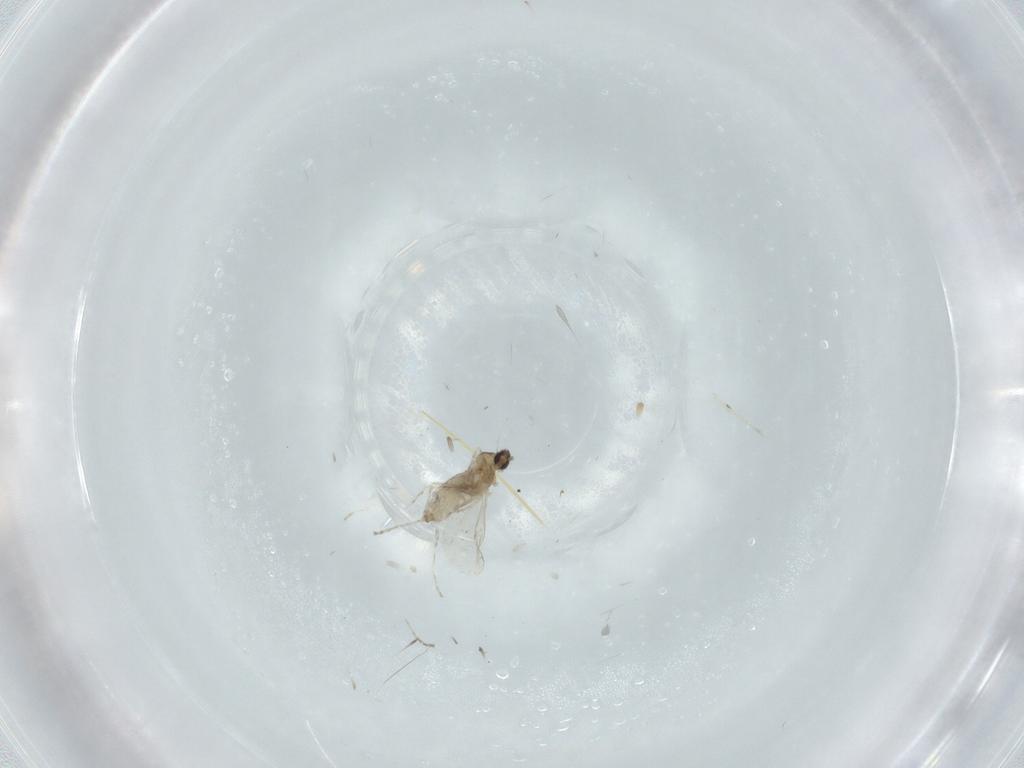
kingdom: Animalia
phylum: Arthropoda
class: Insecta
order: Diptera
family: Cecidomyiidae
